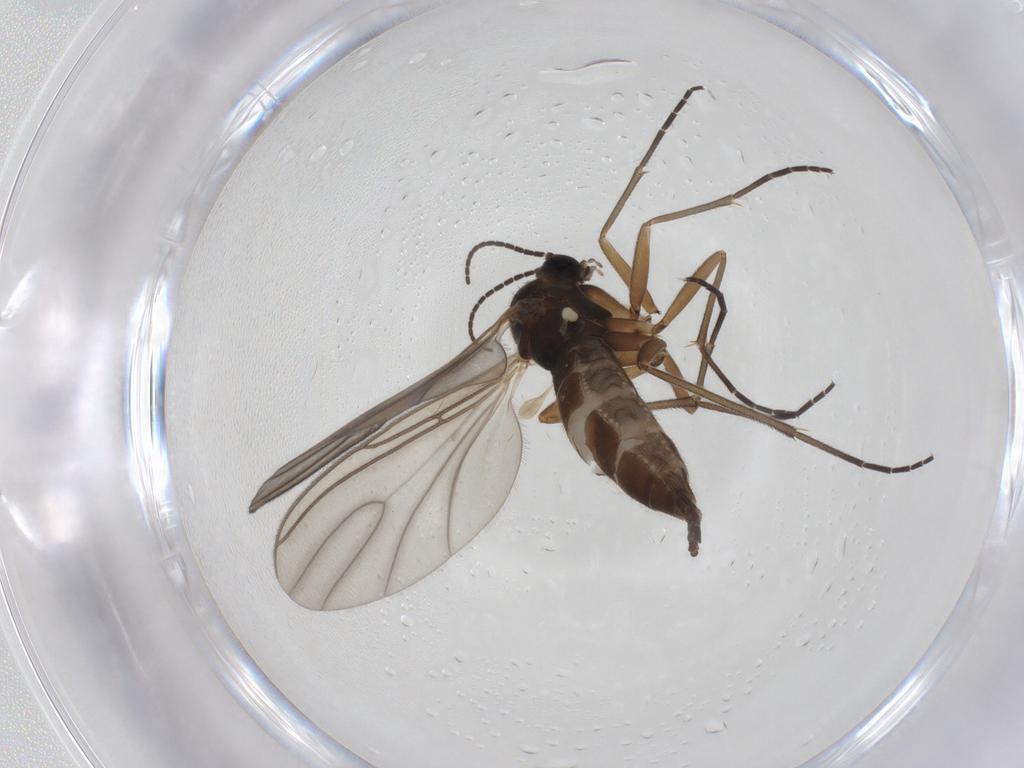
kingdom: Animalia
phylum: Arthropoda
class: Insecta
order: Diptera
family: Sciaridae
